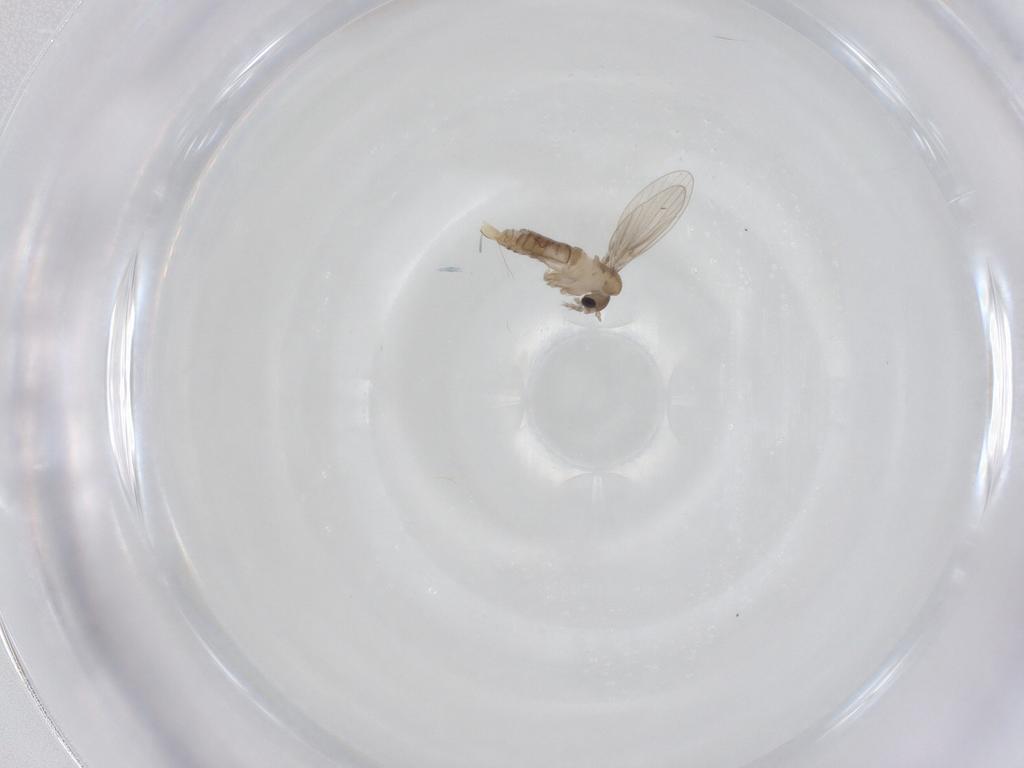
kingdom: Animalia
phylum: Arthropoda
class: Insecta
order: Diptera
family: Psychodidae
